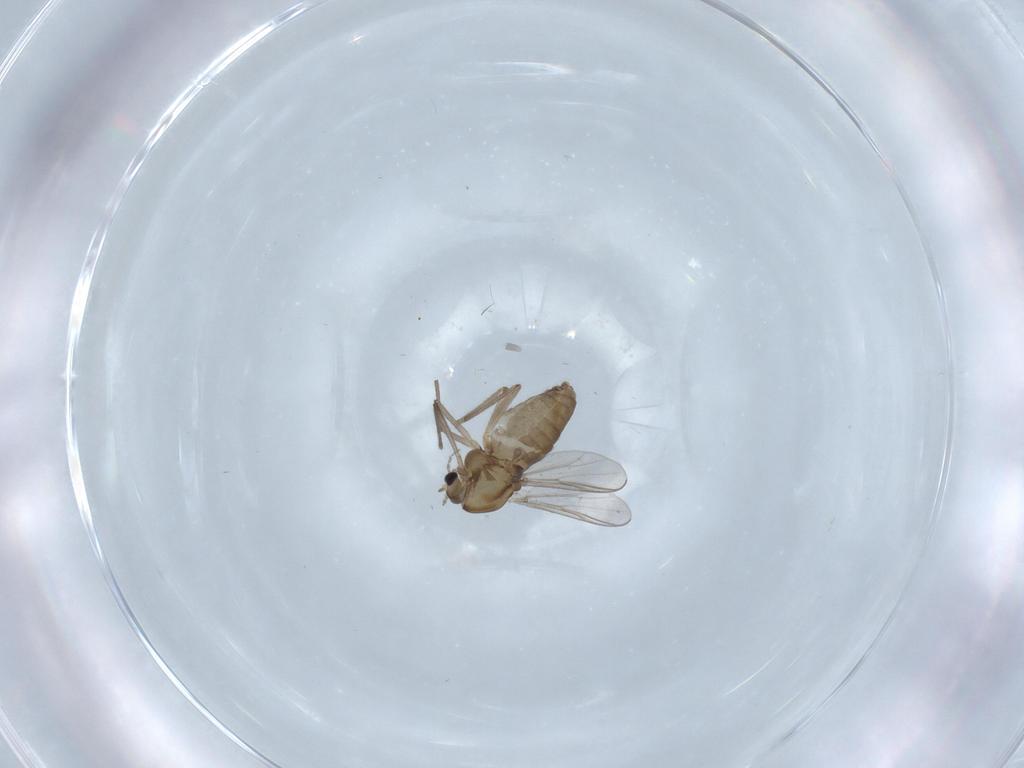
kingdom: Animalia
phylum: Arthropoda
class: Insecta
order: Diptera
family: Chironomidae
